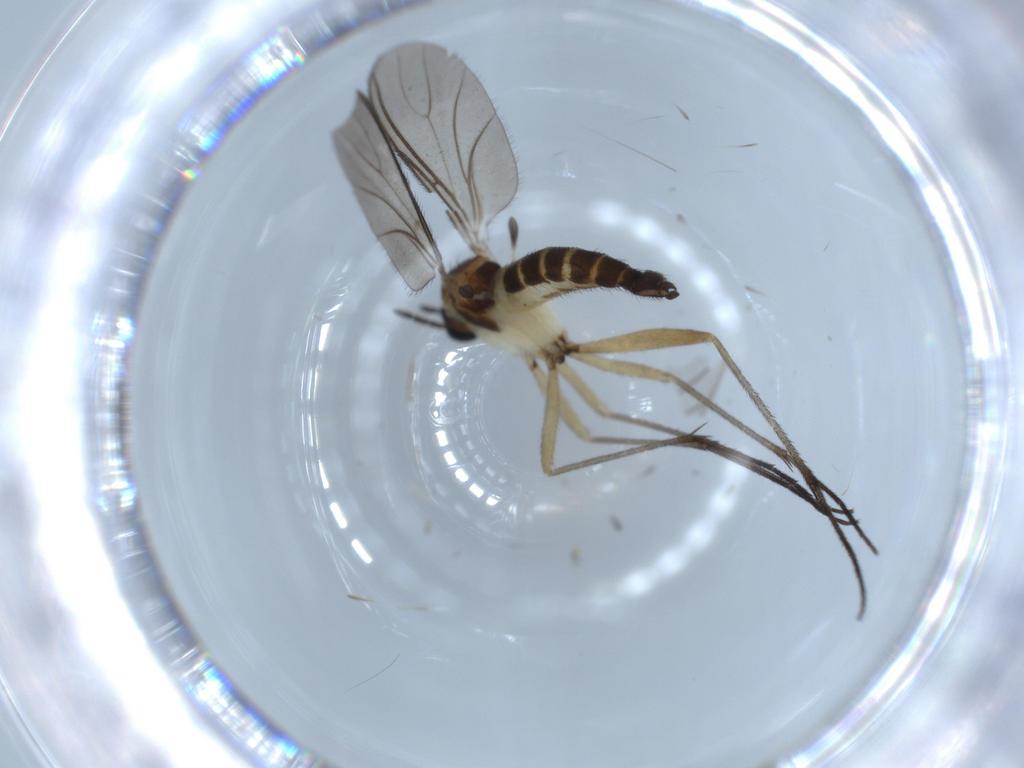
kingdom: Animalia
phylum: Arthropoda
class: Insecta
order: Diptera
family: Sciaridae
